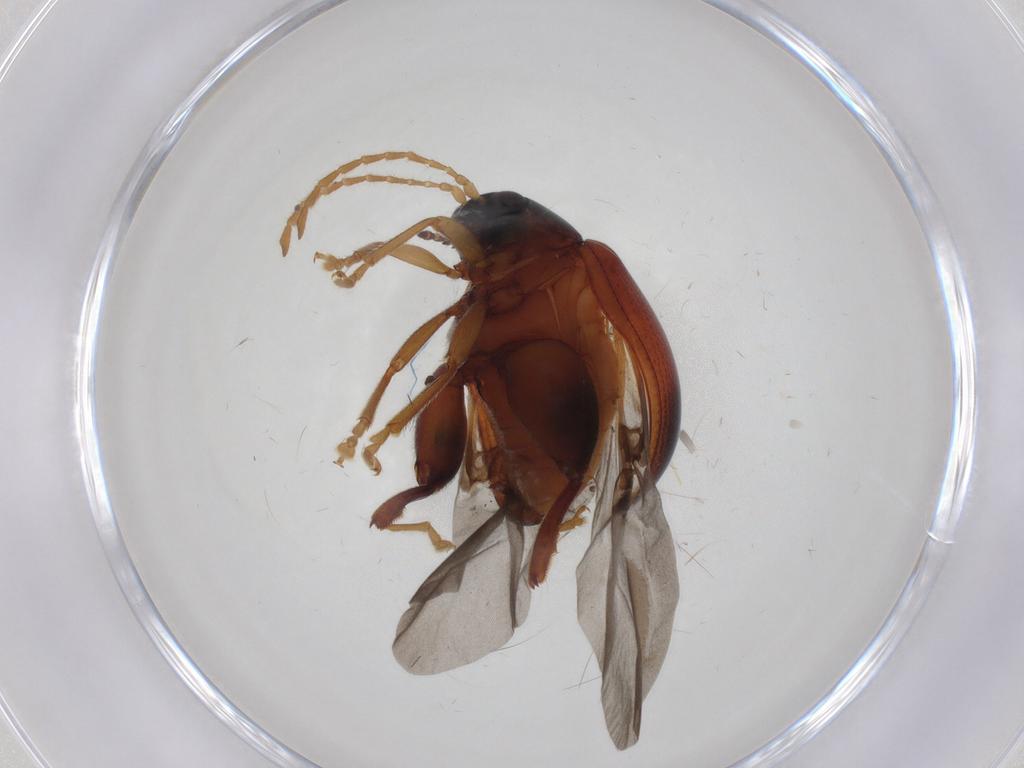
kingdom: Animalia
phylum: Arthropoda
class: Insecta
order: Coleoptera
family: Chrysomelidae
